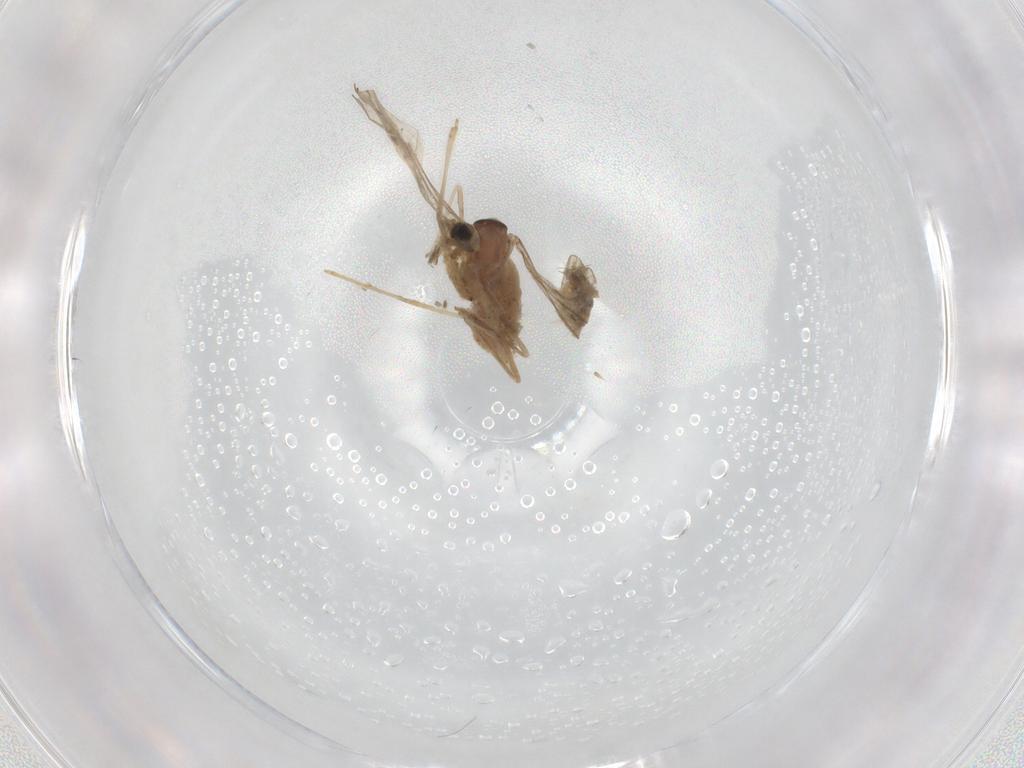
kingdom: Animalia
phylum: Arthropoda
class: Insecta
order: Diptera
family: Cecidomyiidae
